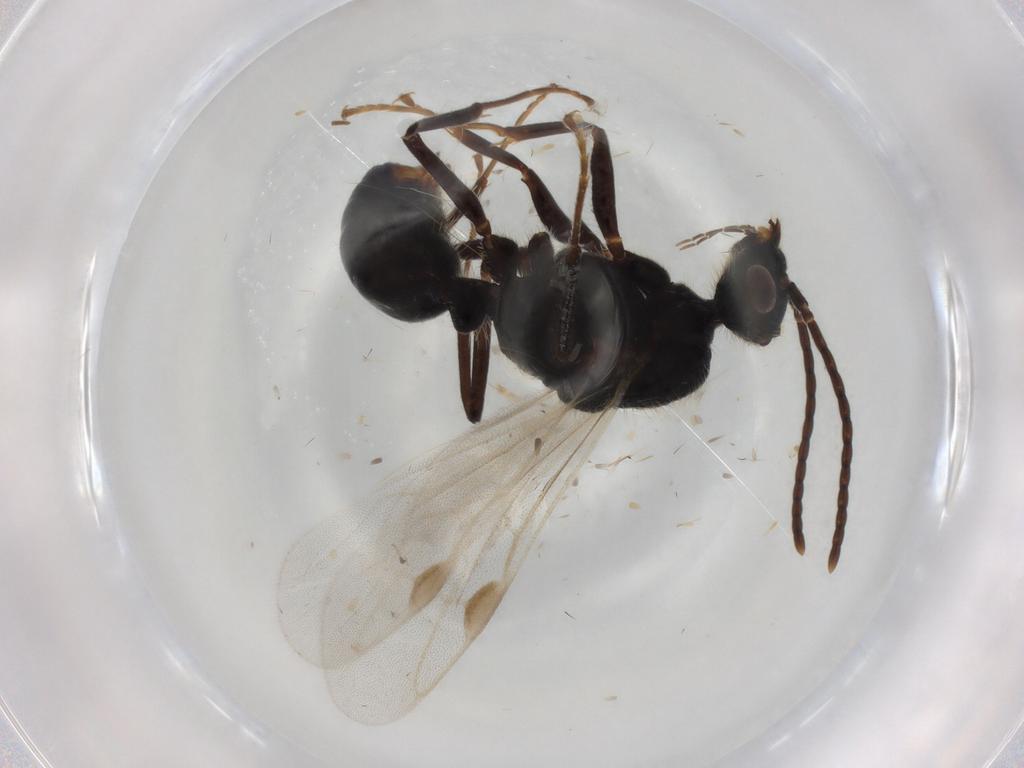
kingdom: Animalia
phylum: Arthropoda
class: Insecta
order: Hymenoptera
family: Formicidae
